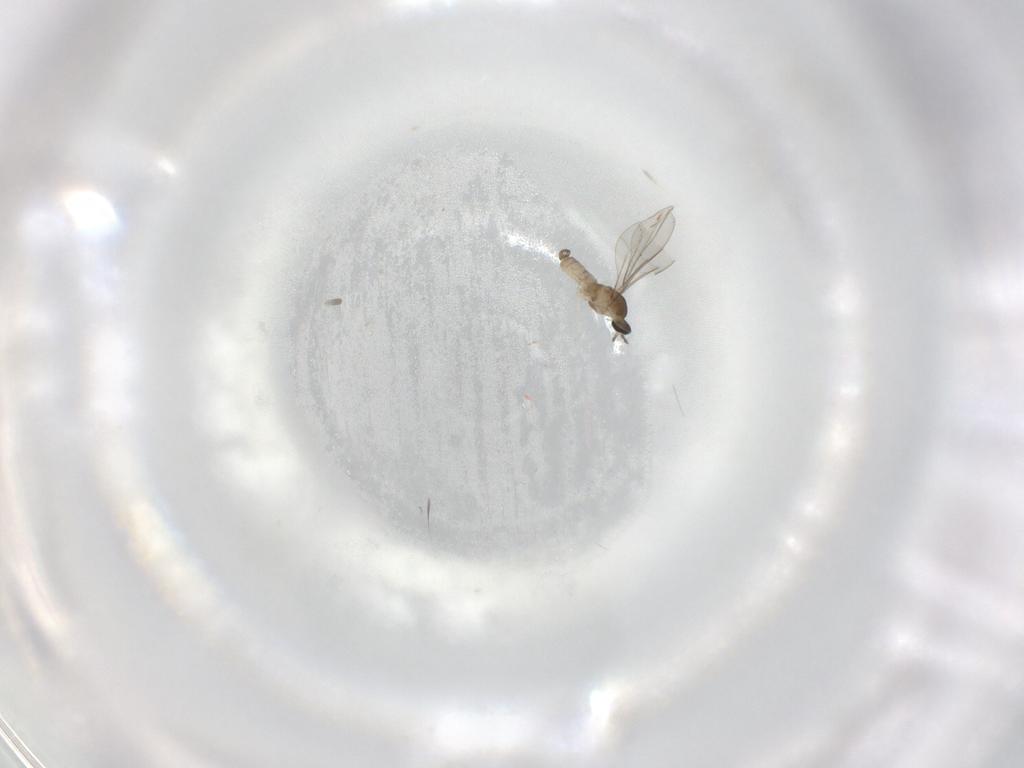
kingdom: Animalia
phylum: Arthropoda
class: Insecta
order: Diptera
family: Cecidomyiidae
